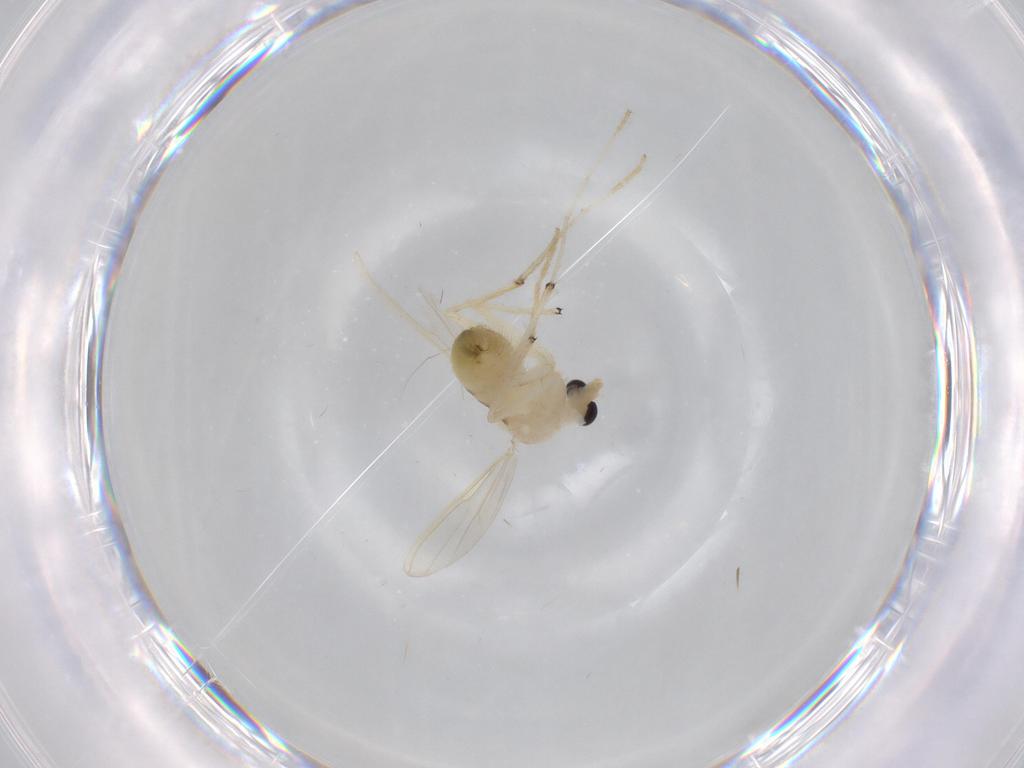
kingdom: Animalia
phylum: Arthropoda
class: Insecta
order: Diptera
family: Chironomidae
